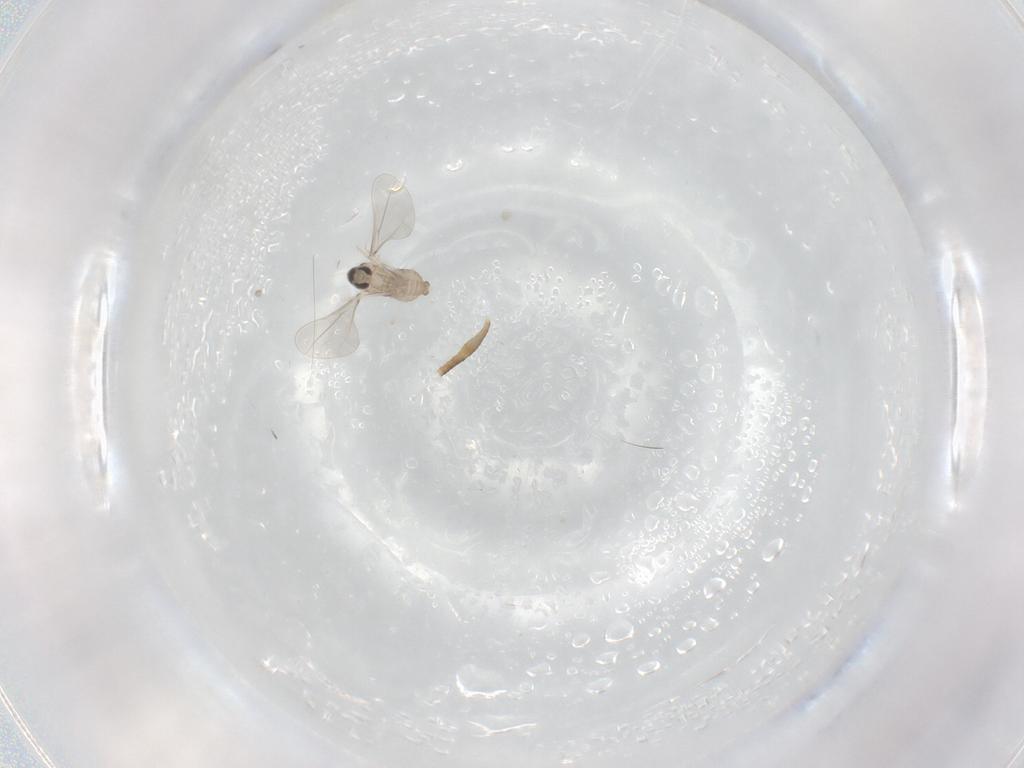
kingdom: Animalia
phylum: Arthropoda
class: Insecta
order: Diptera
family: Cecidomyiidae
